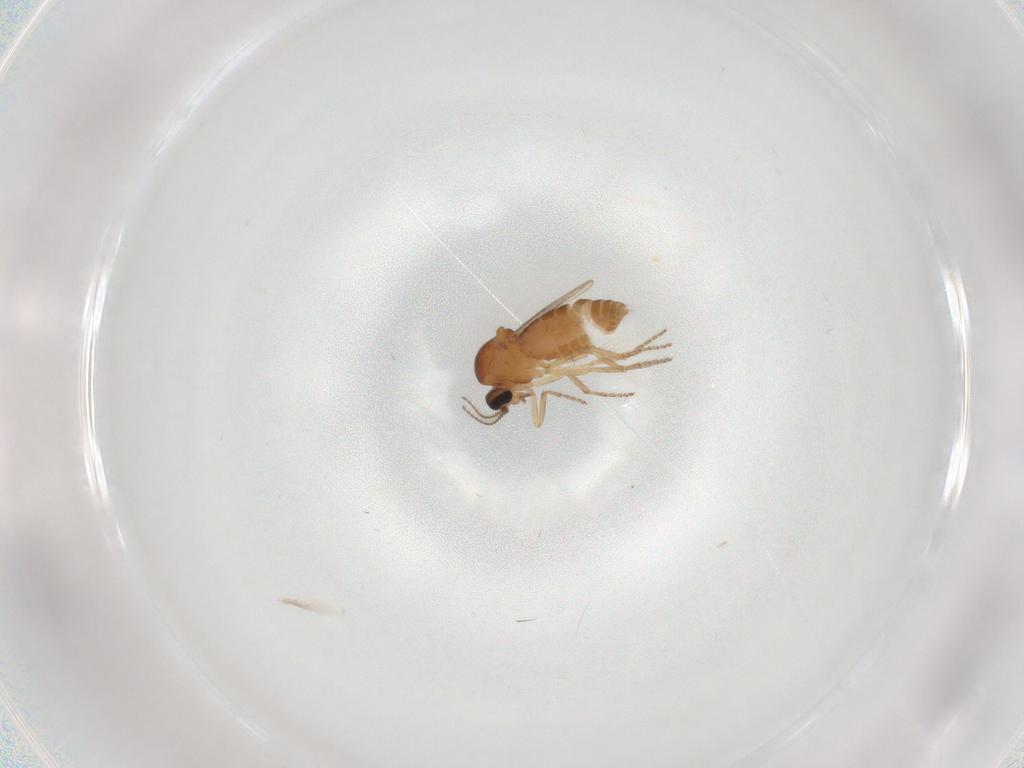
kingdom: Animalia
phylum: Arthropoda
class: Insecta
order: Diptera
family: Ceratopogonidae
